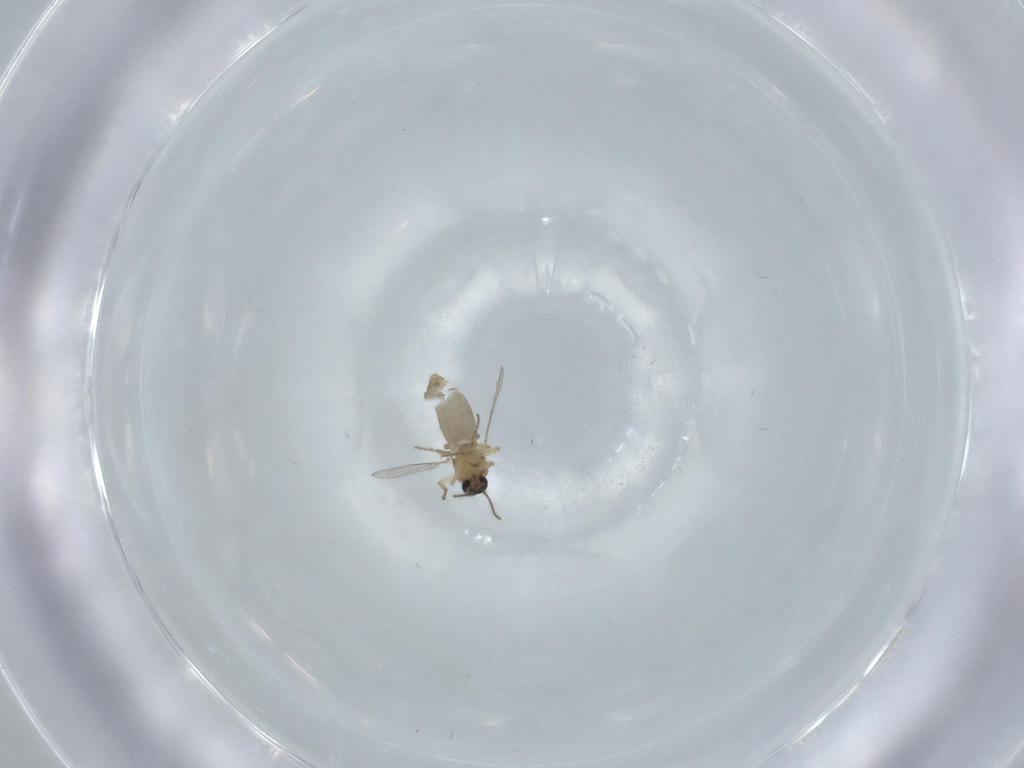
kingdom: Animalia
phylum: Arthropoda
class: Insecta
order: Diptera
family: Ceratopogonidae
